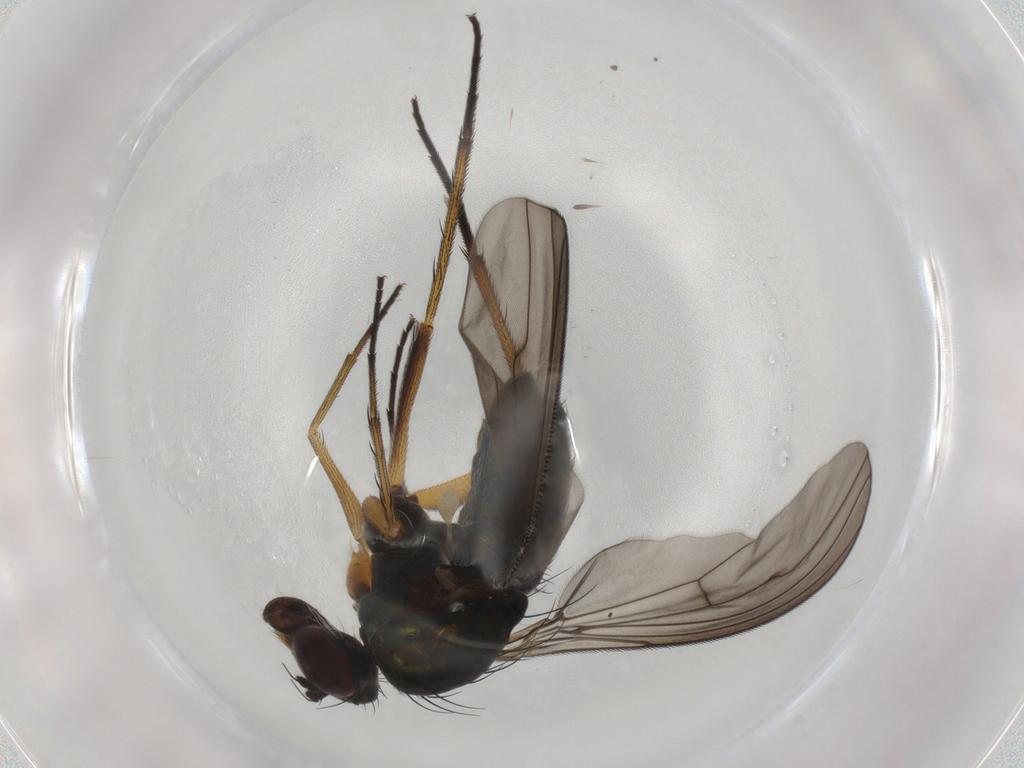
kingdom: Animalia
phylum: Arthropoda
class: Insecta
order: Diptera
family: Dolichopodidae
